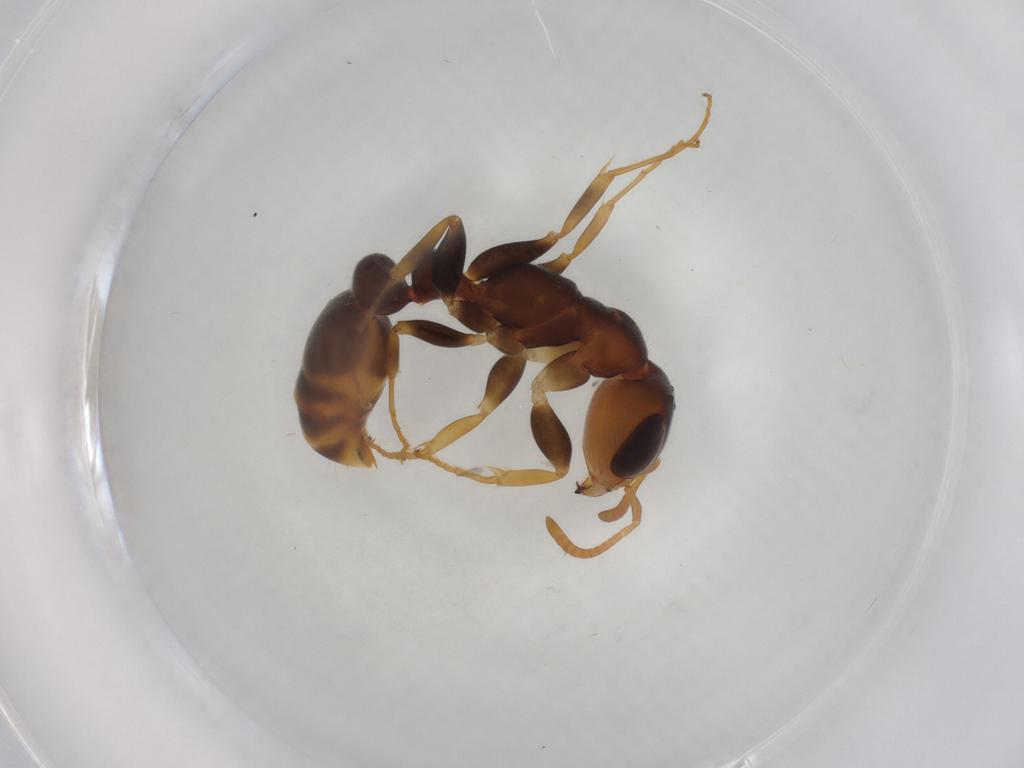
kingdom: Animalia
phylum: Arthropoda
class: Insecta
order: Hymenoptera
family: Formicidae
